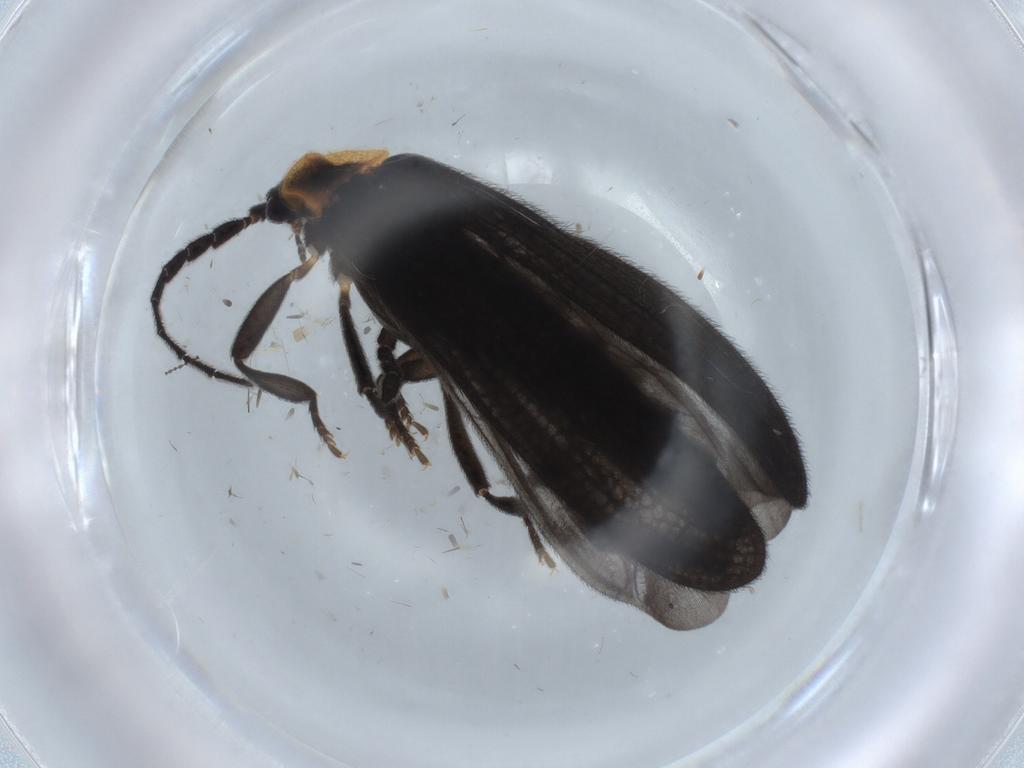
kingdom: Animalia
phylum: Arthropoda
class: Insecta
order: Coleoptera
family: Lycidae
